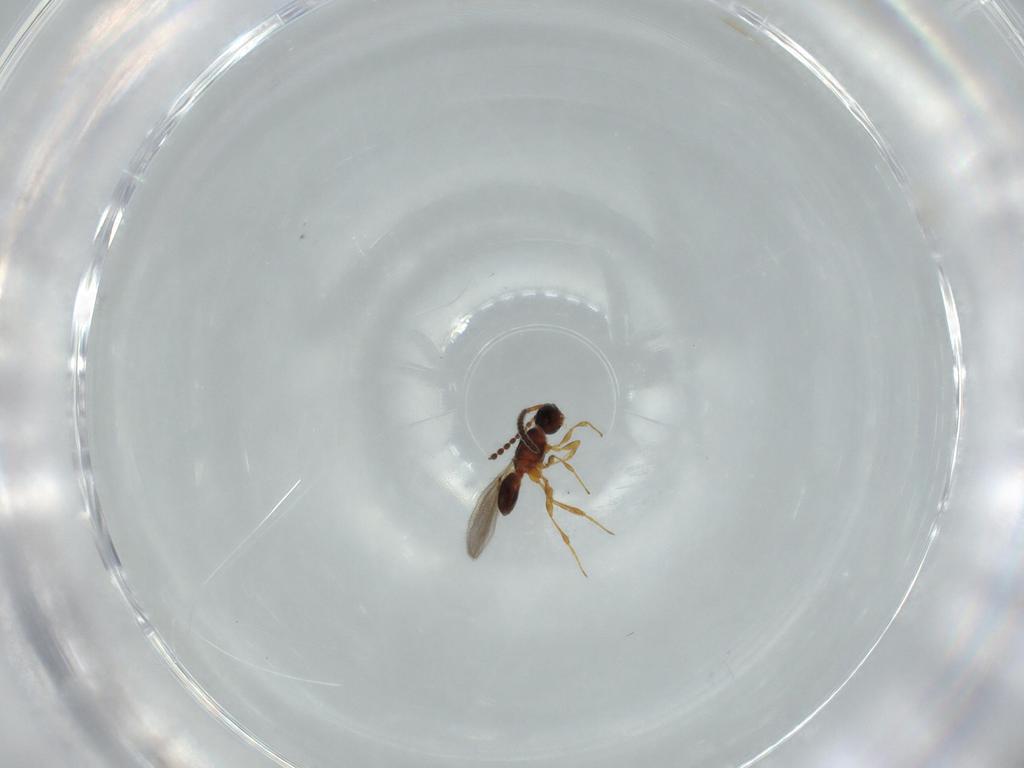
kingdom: Animalia
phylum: Arthropoda
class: Insecta
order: Hymenoptera
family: Diapriidae
